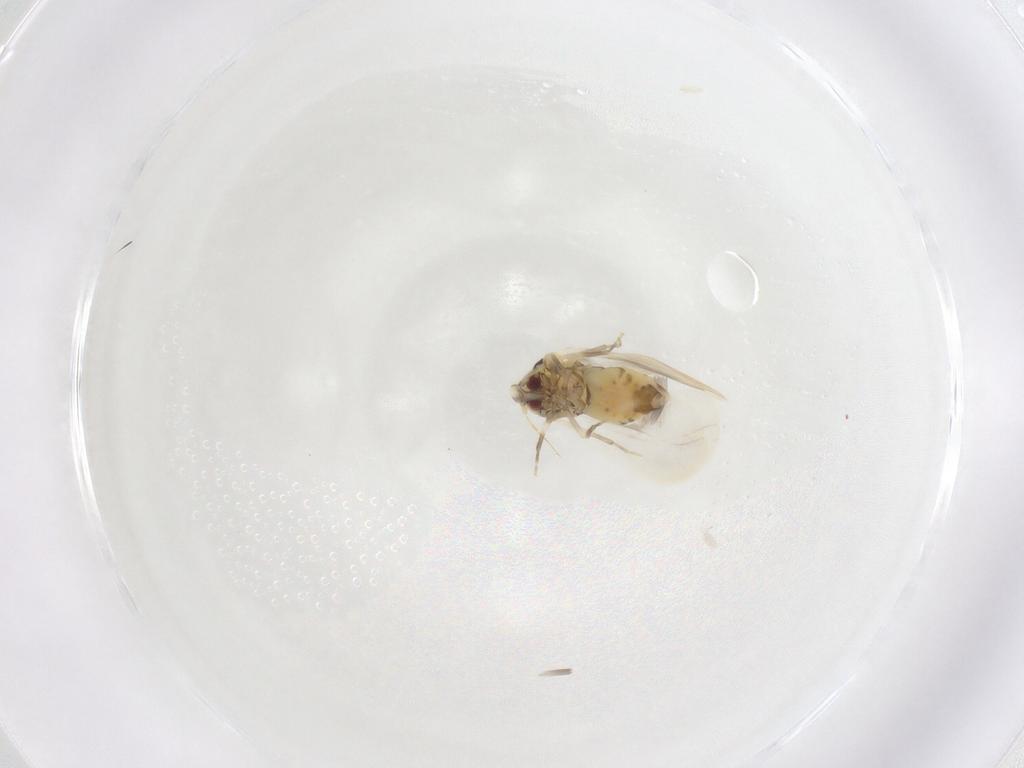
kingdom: Animalia
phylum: Arthropoda
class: Insecta
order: Hemiptera
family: Aleyrodidae
